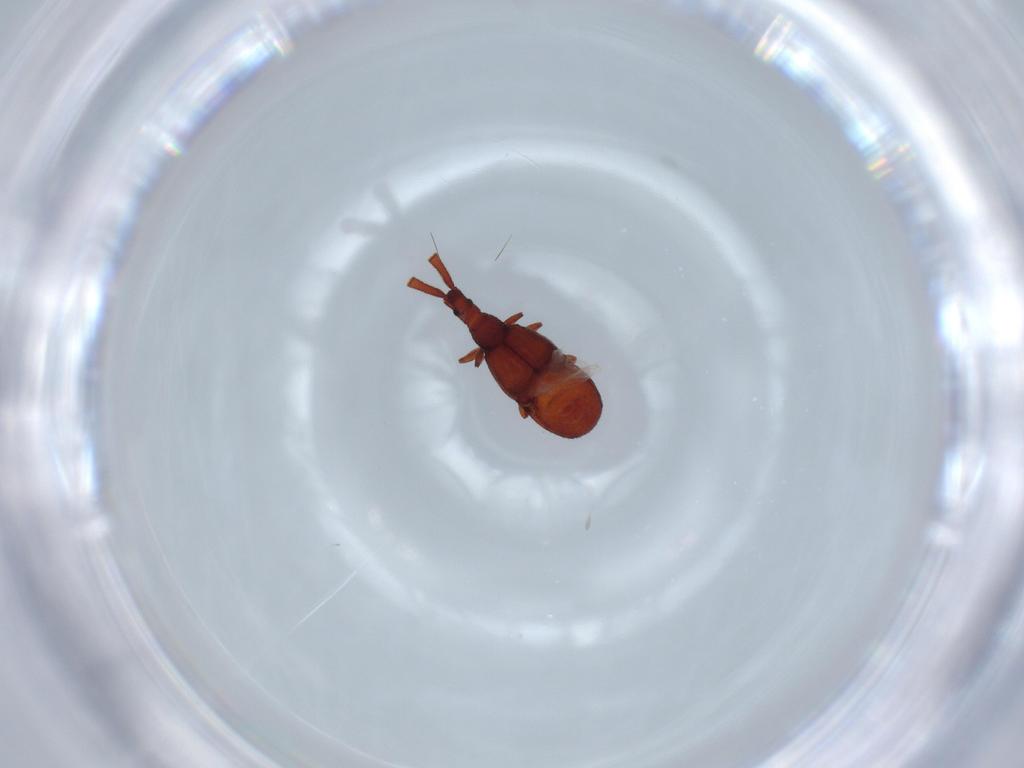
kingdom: Animalia
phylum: Arthropoda
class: Insecta
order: Coleoptera
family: Staphylinidae
